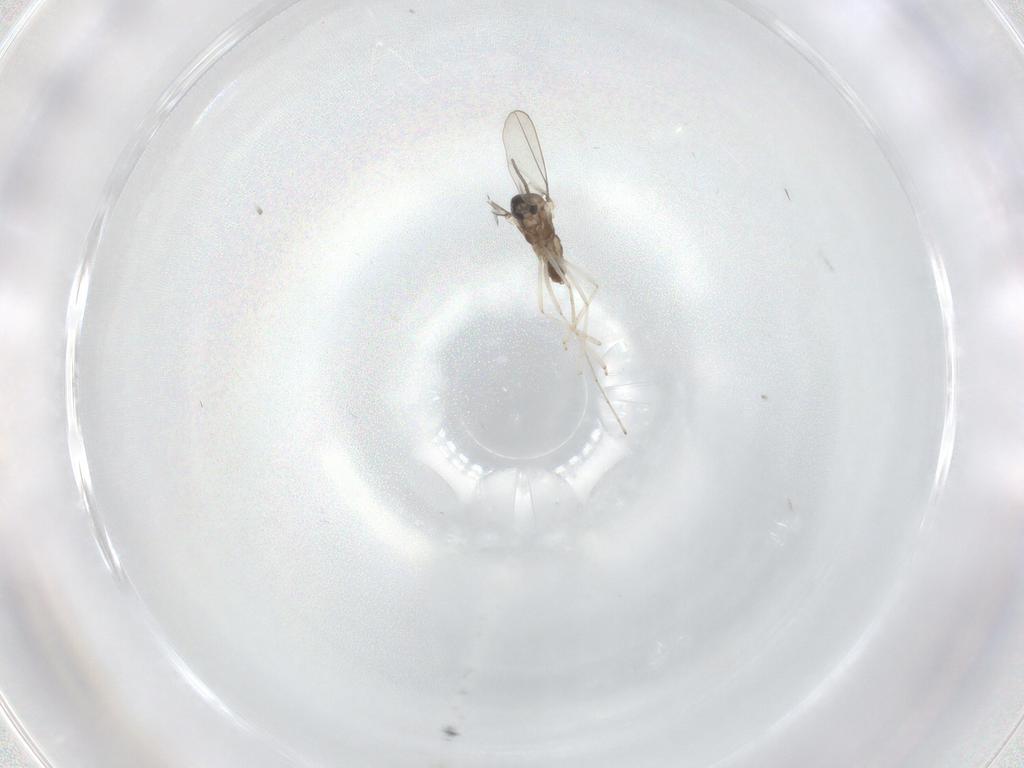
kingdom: Animalia
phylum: Arthropoda
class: Insecta
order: Diptera
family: Cecidomyiidae
